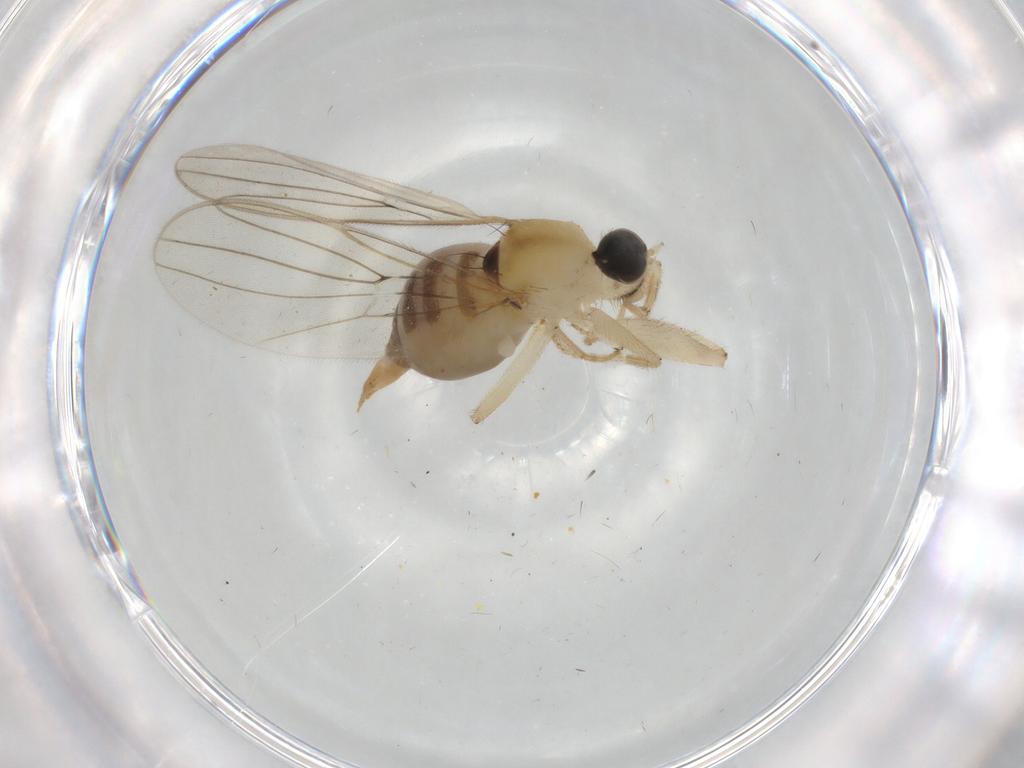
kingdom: Animalia
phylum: Arthropoda
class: Insecta
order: Diptera
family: Hybotidae
